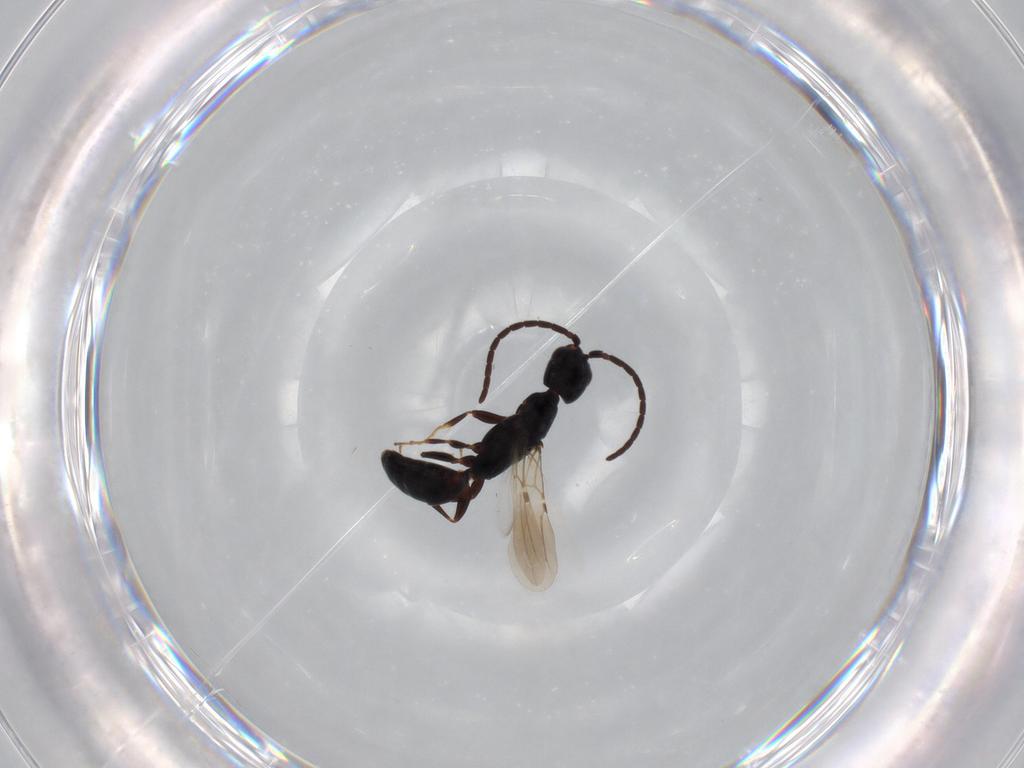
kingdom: Animalia
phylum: Arthropoda
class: Insecta
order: Hymenoptera
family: Bethylidae
